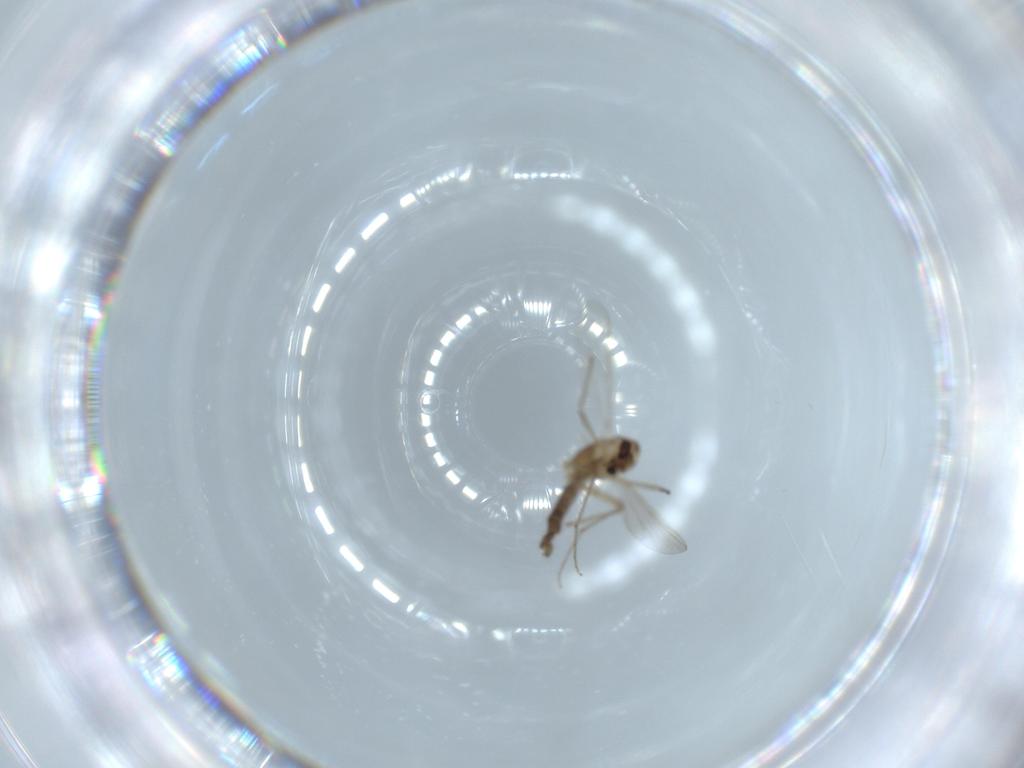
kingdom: Animalia
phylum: Arthropoda
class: Insecta
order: Diptera
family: Chironomidae
